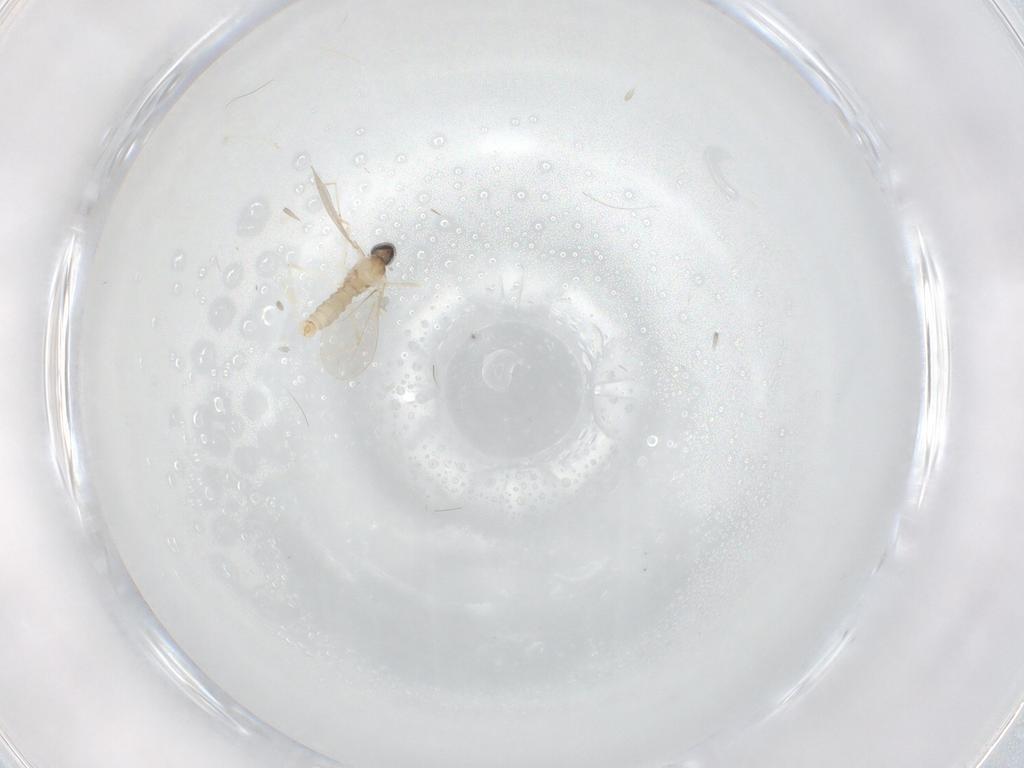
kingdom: Animalia
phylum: Arthropoda
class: Insecta
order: Diptera
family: Cecidomyiidae
